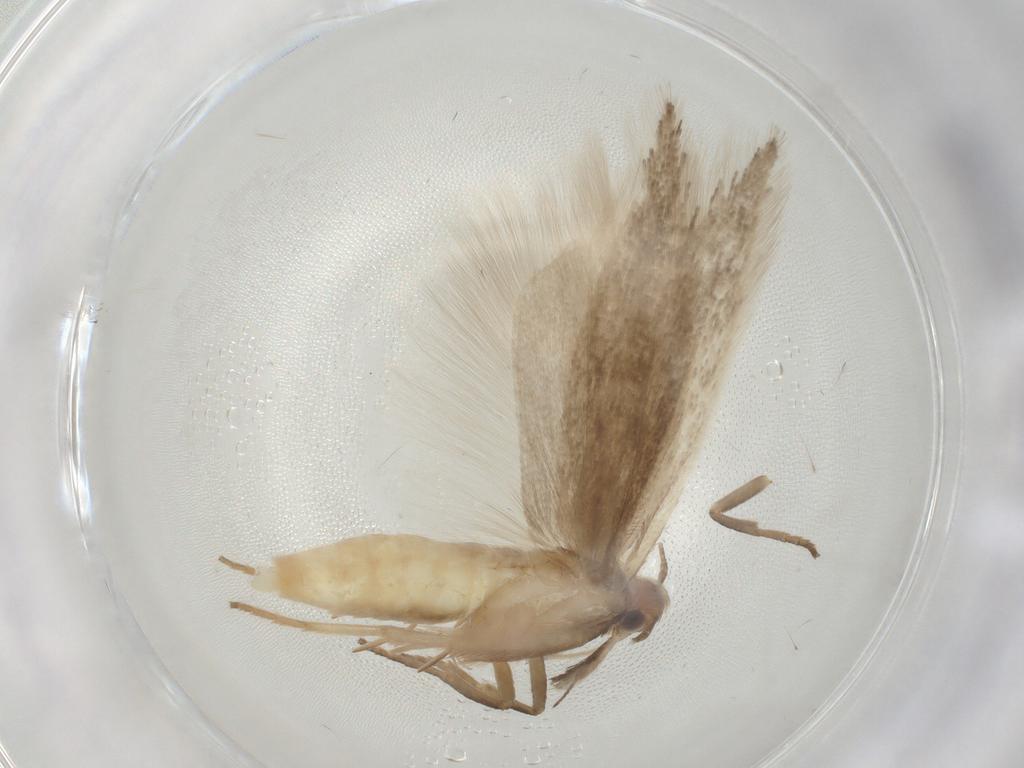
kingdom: Animalia
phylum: Arthropoda
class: Insecta
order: Lepidoptera
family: Gelechiidae
